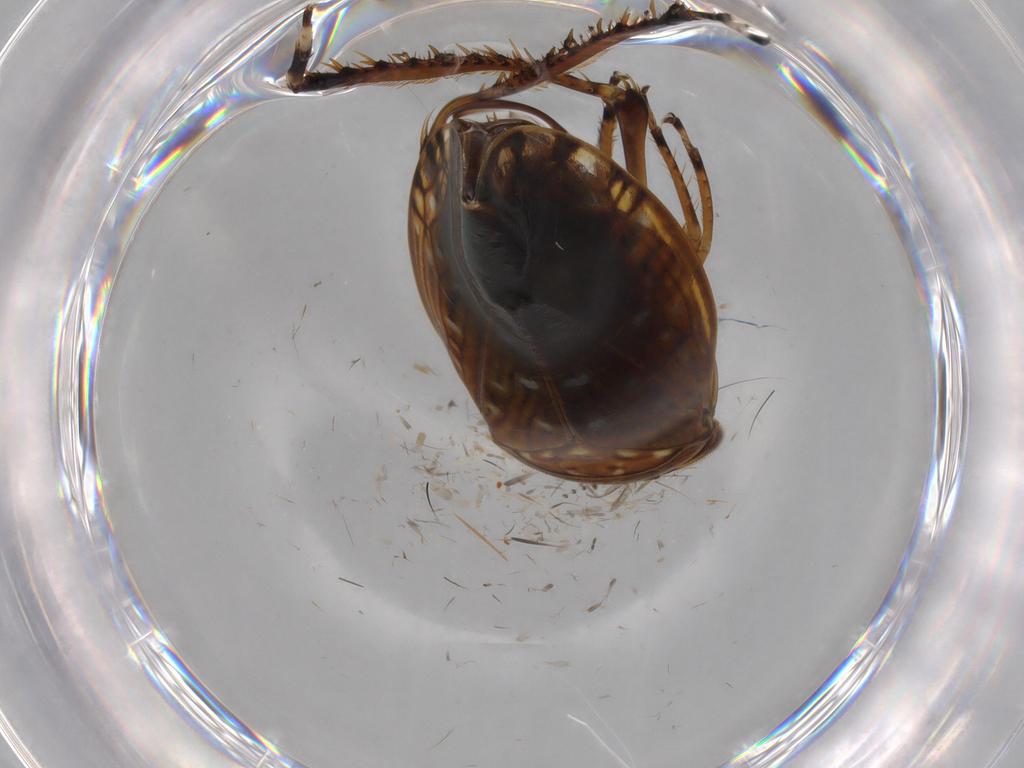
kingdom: Animalia
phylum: Arthropoda
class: Insecta
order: Hemiptera
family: Cicadellidae
